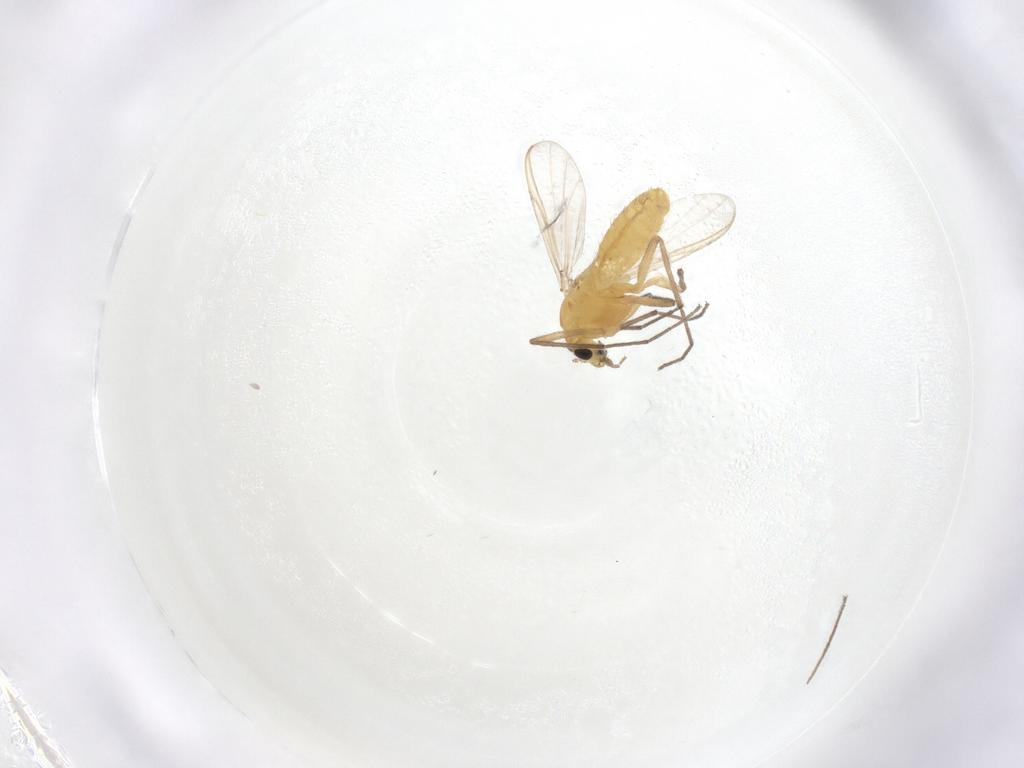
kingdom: Animalia
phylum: Arthropoda
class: Insecta
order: Diptera
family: Chironomidae
